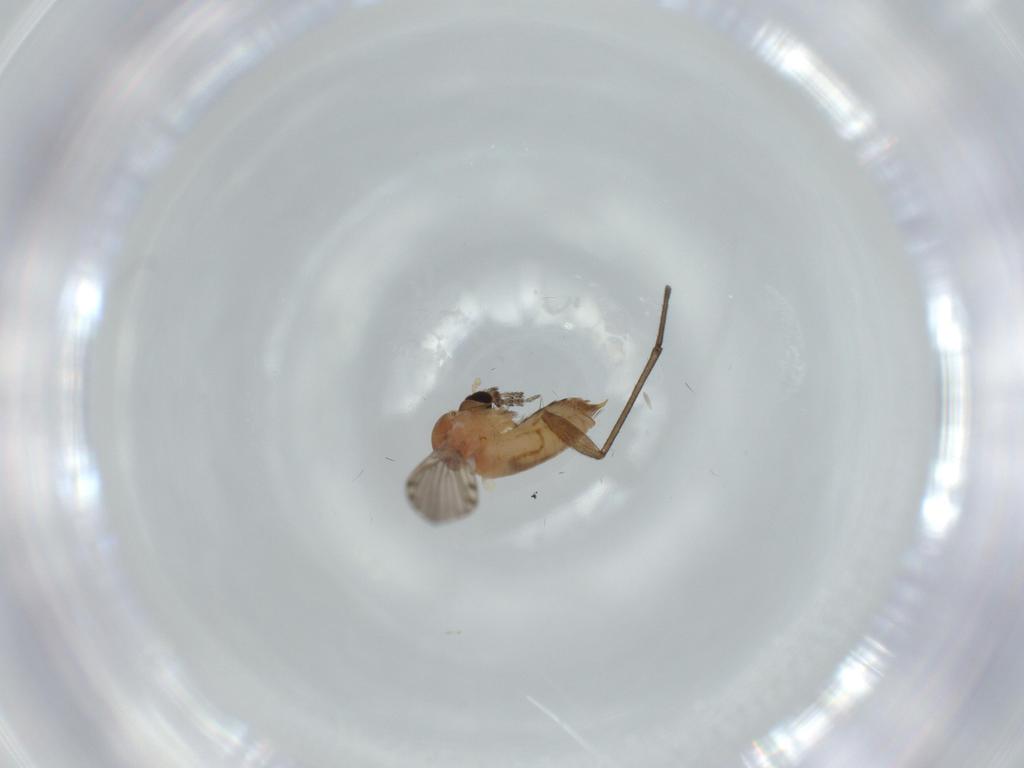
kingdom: Animalia
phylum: Arthropoda
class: Insecta
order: Diptera
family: Psychodidae
